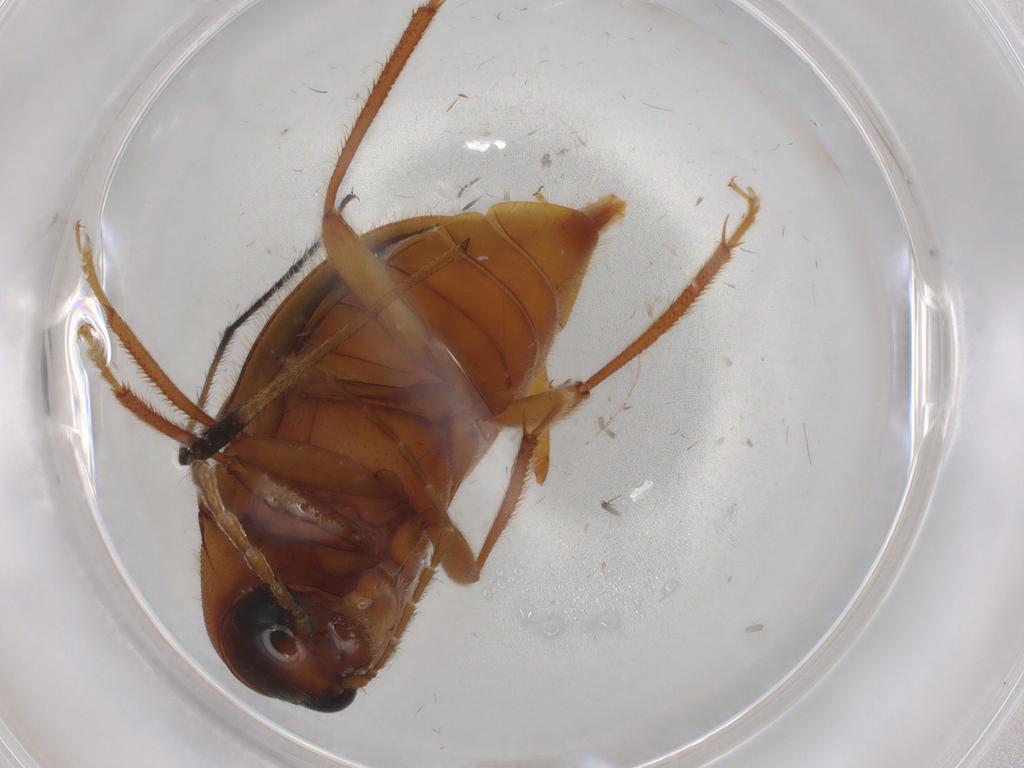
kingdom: Animalia
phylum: Arthropoda
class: Insecta
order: Coleoptera
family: Ptilodactylidae
